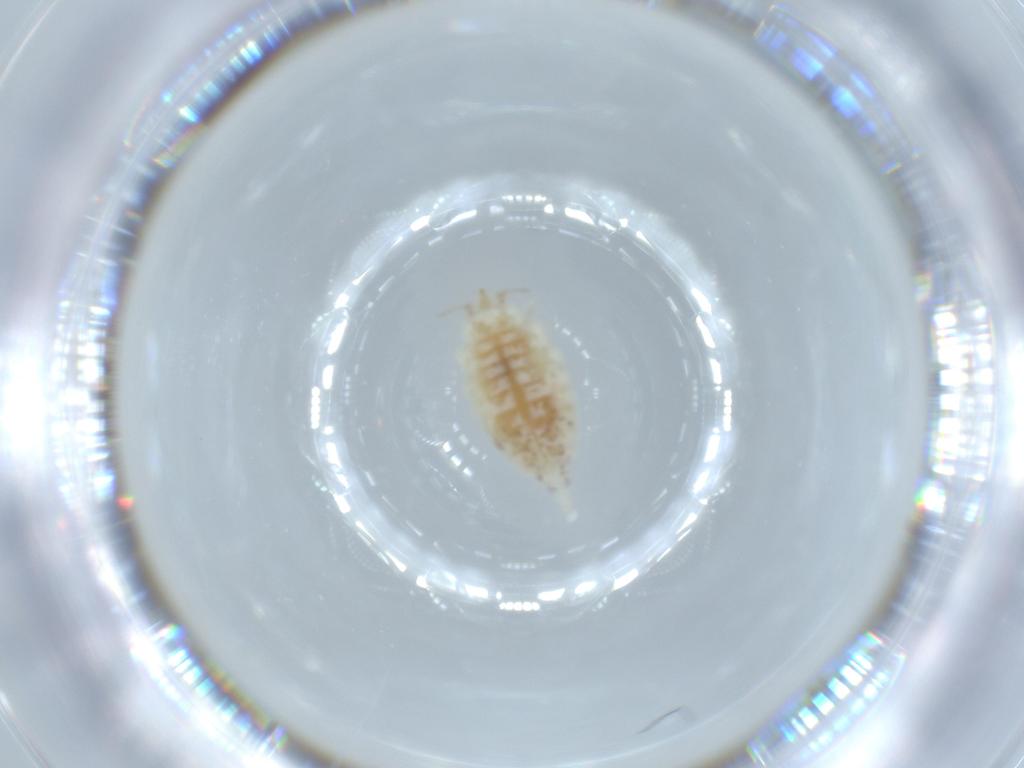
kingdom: Animalia
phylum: Arthropoda
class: Insecta
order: Neuroptera
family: Coniopterygidae
